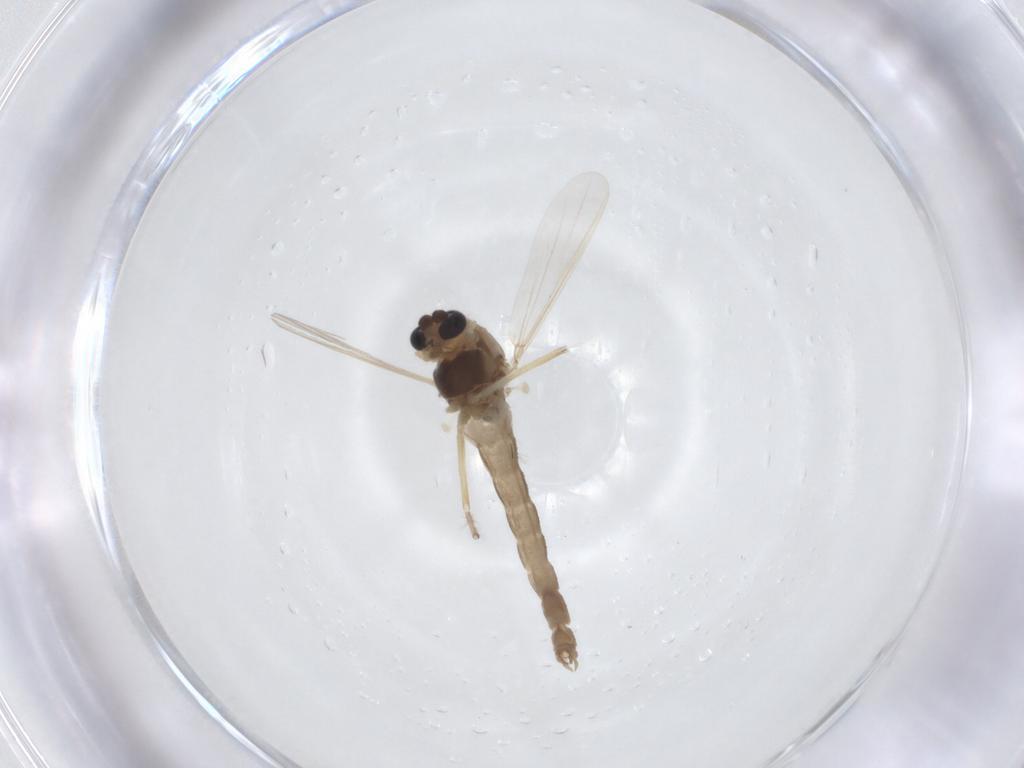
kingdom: Animalia
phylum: Arthropoda
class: Insecta
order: Diptera
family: Chironomidae
